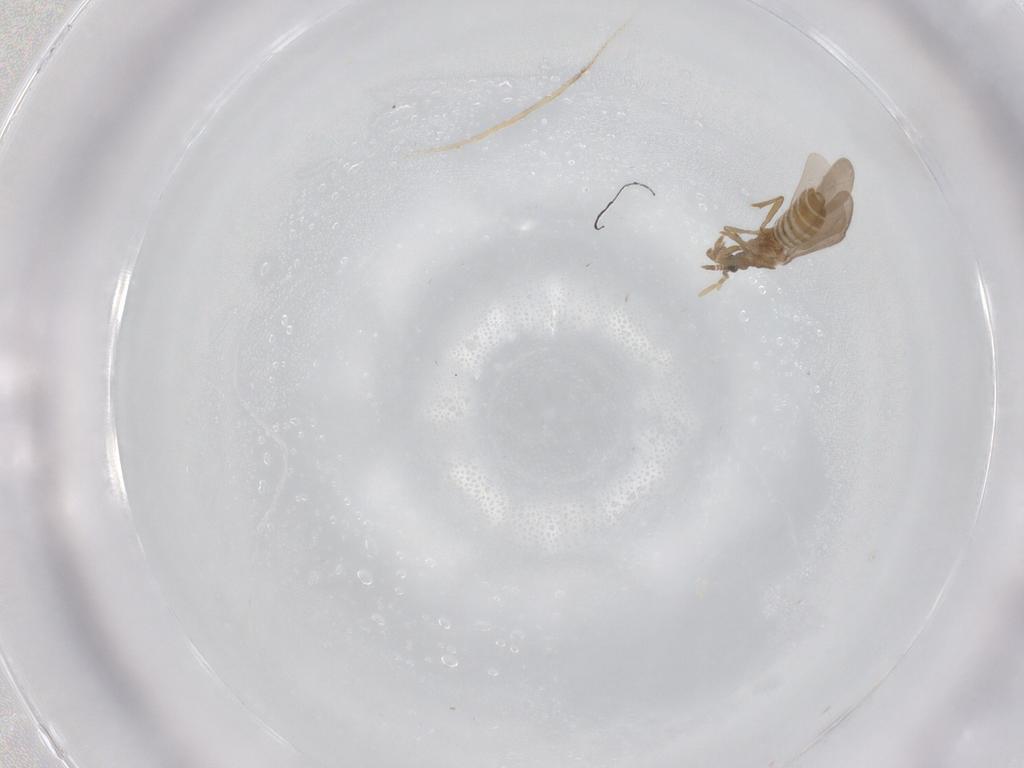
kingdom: Animalia
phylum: Arthropoda
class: Insecta
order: Hemiptera
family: Enicocephalidae
